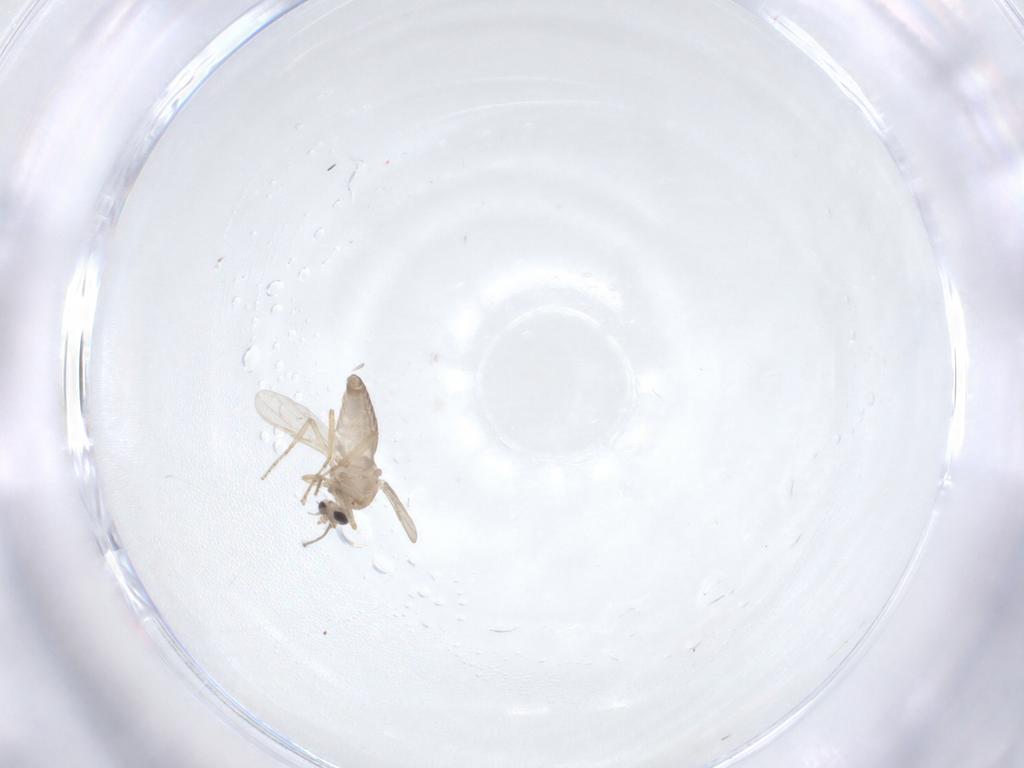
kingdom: Animalia
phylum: Arthropoda
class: Insecta
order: Diptera
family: Ceratopogonidae
